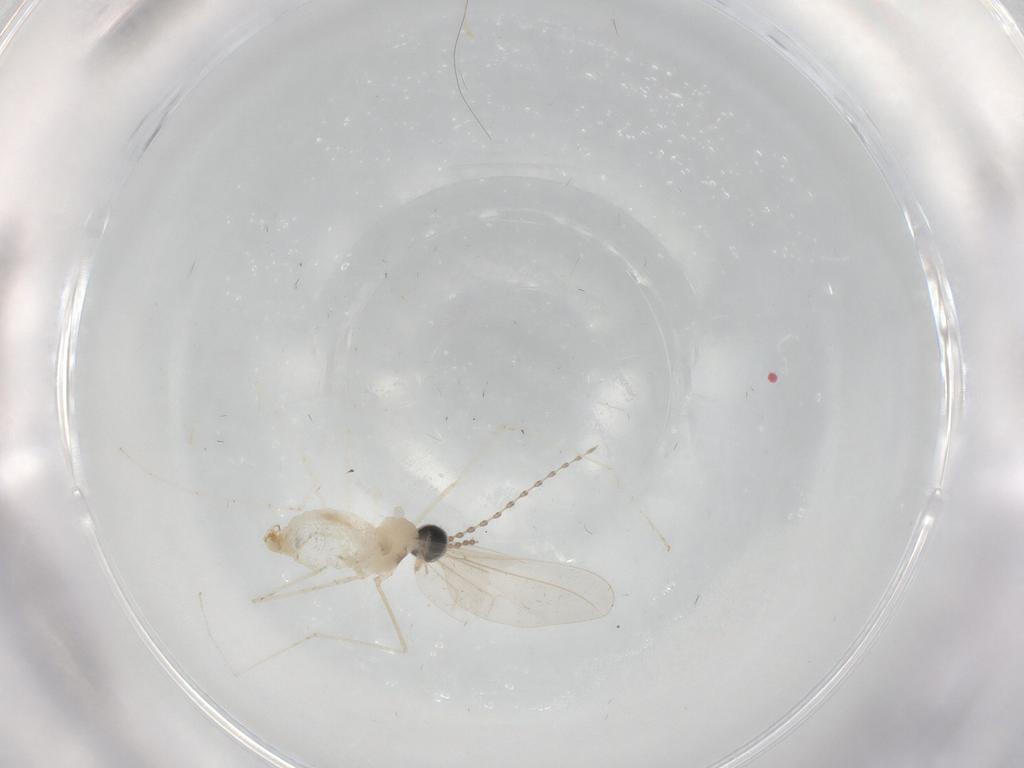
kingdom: Animalia
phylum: Arthropoda
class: Insecta
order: Diptera
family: Cecidomyiidae
